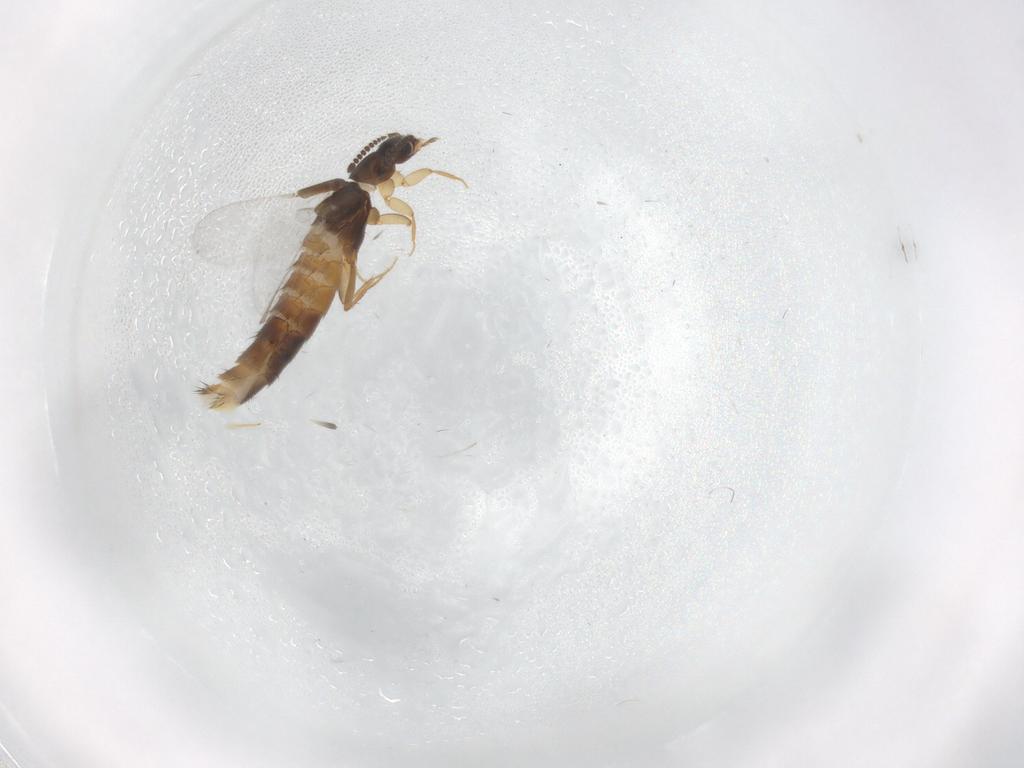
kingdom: Animalia
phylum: Arthropoda
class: Insecta
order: Coleoptera
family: Staphylinidae
